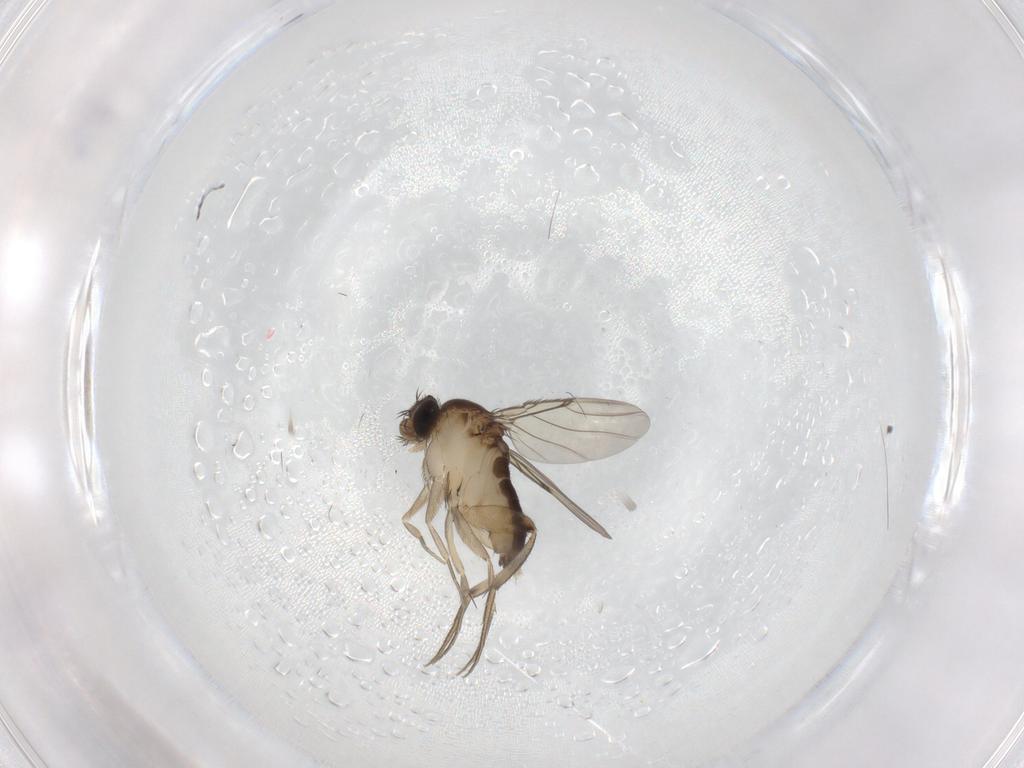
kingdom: Animalia
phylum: Arthropoda
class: Insecta
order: Diptera
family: Phoridae
